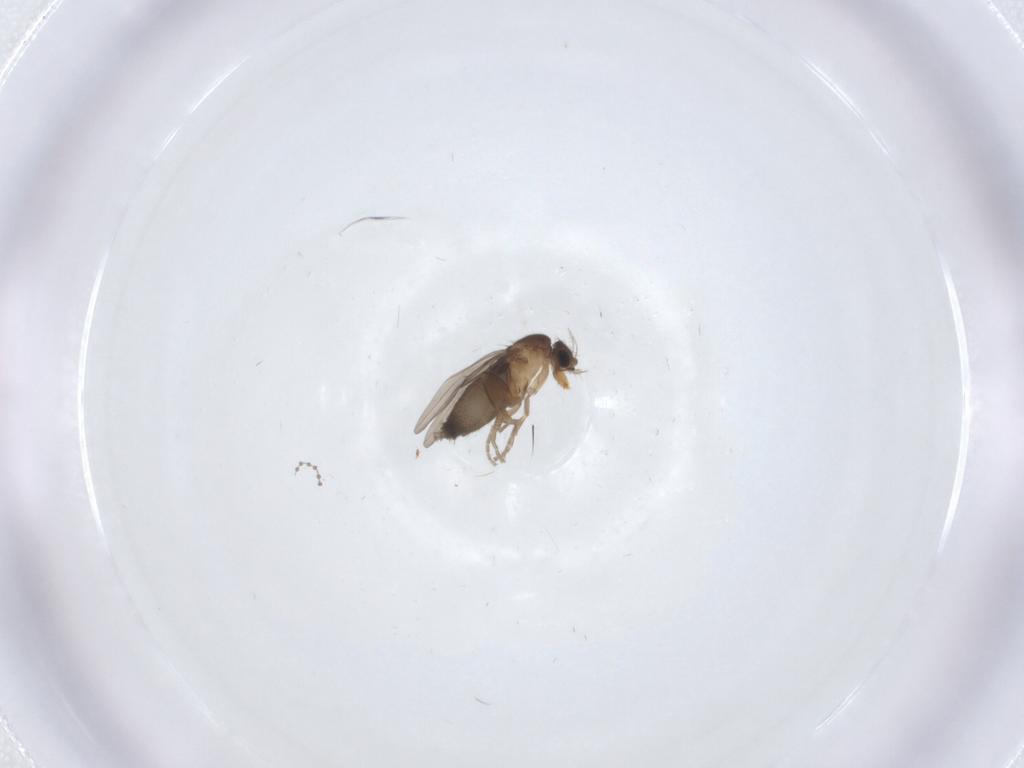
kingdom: Animalia
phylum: Arthropoda
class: Insecta
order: Diptera
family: Cecidomyiidae
